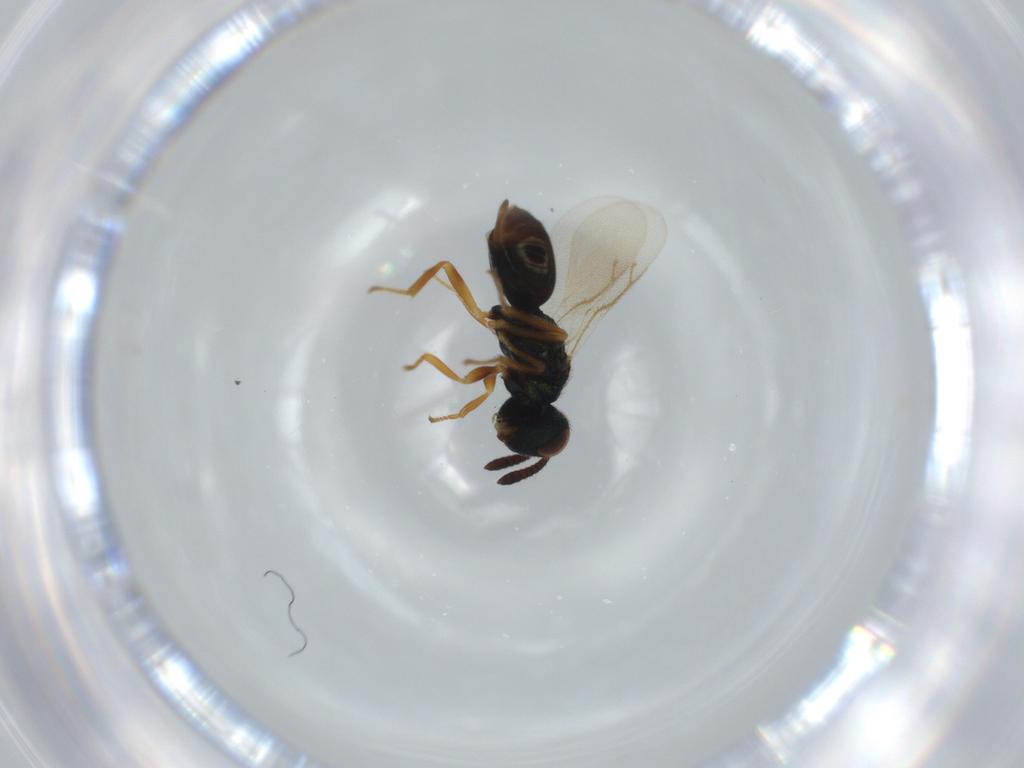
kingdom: Animalia
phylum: Arthropoda
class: Insecta
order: Hymenoptera
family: Pteromalidae
